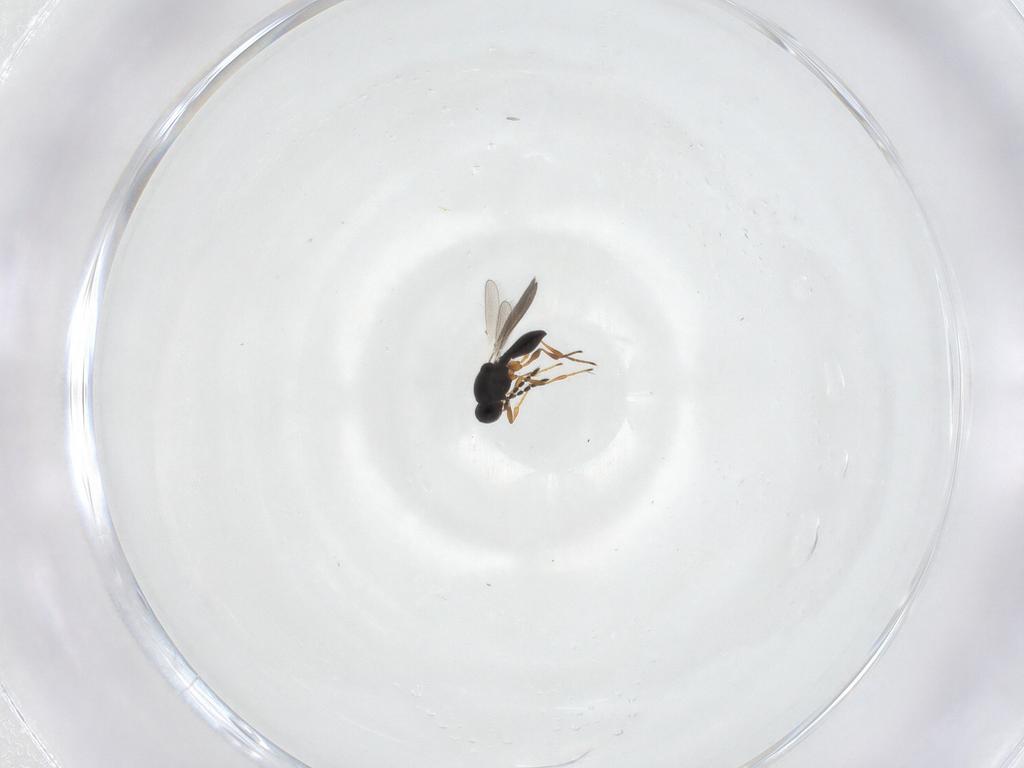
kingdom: Animalia
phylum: Arthropoda
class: Insecta
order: Hymenoptera
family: Platygastridae
